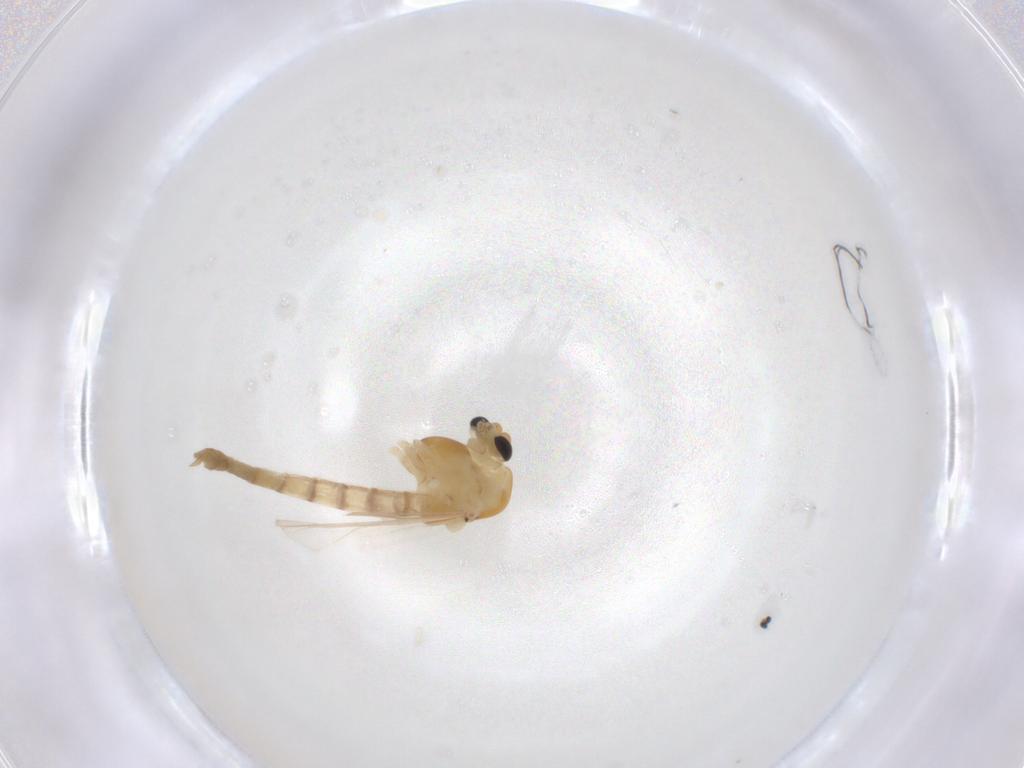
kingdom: Animalia
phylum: Arthropoda
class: Insecta
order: Diptera
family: Chironomidae
